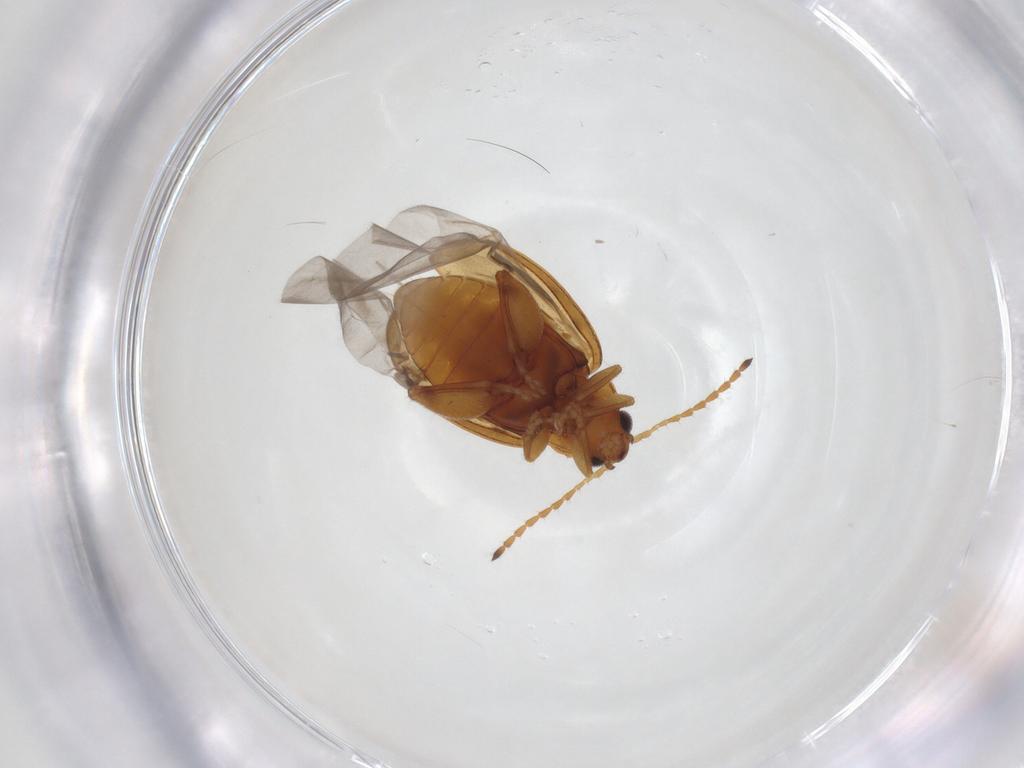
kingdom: Animalia
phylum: Arthropoda
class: Insecta
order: Coleoptera
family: Chrysomelidae
